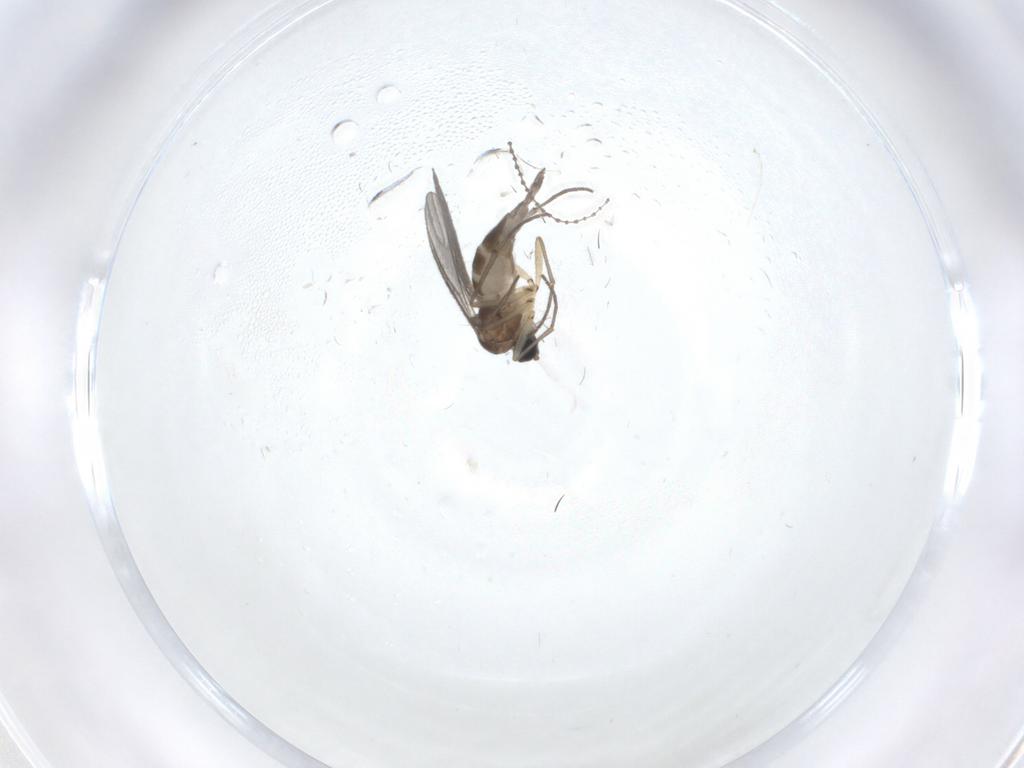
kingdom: Animalia
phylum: Arthropoda
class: Insecta
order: Diptera
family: Sciaridae
